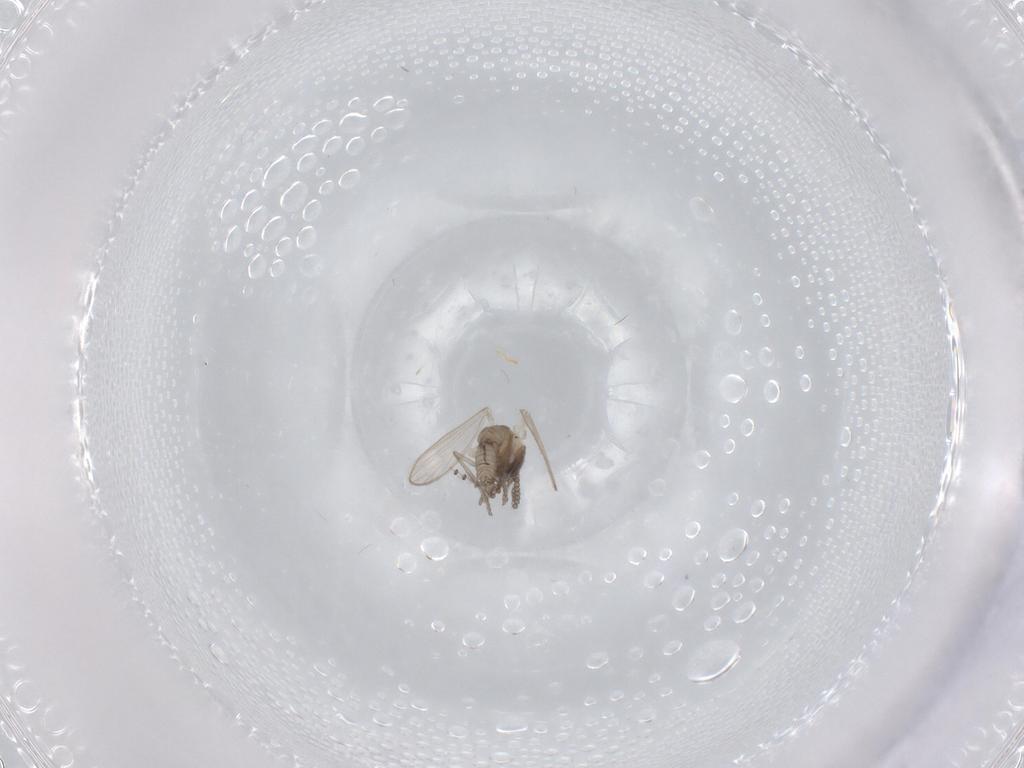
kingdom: Animalia
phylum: Arthropoda
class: Insecta
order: Diptera
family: Psychodidae
